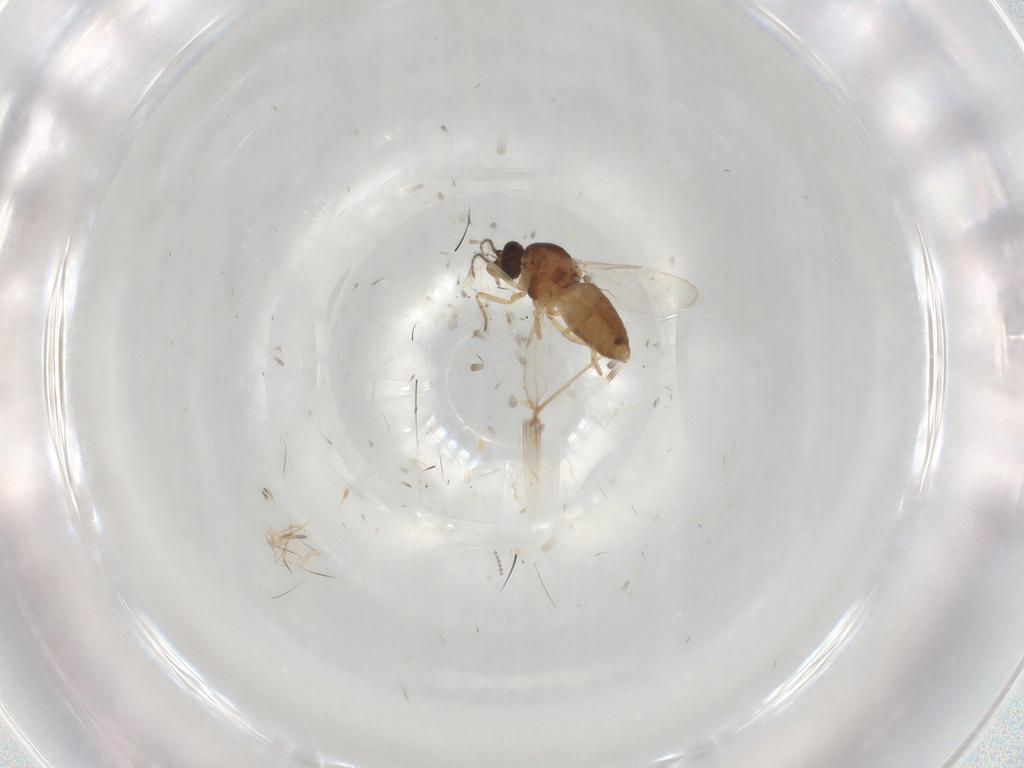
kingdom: Animalia
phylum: Arthropoda
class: Insecta
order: Diptera
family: Ceratopogonidae
